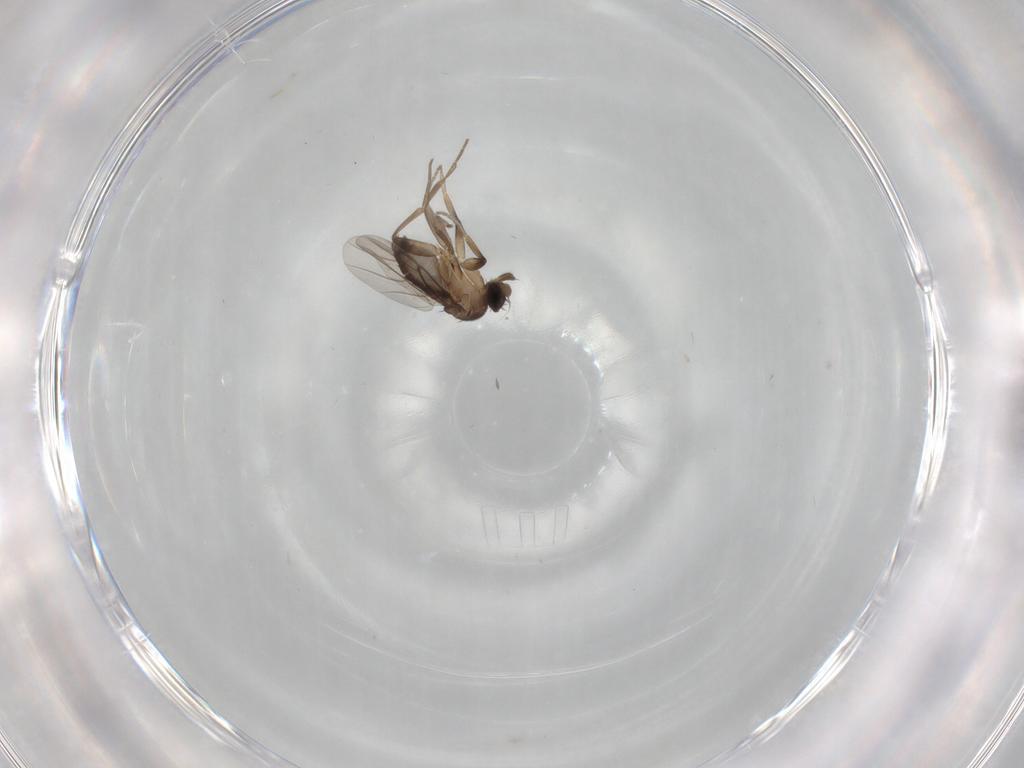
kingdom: Animalia
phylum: Arthropoda
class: Insecta
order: Diptera
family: Phoridae
